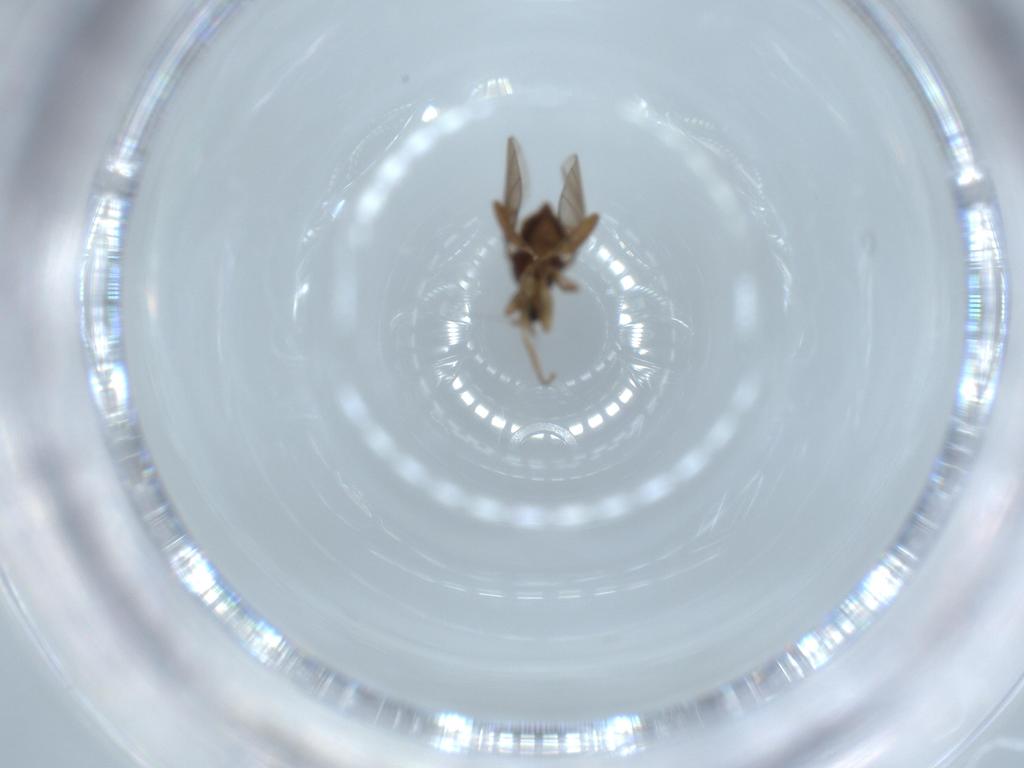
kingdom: Animalia
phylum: Arthropoda
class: Insecta
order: Diptera
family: Hybotidae
